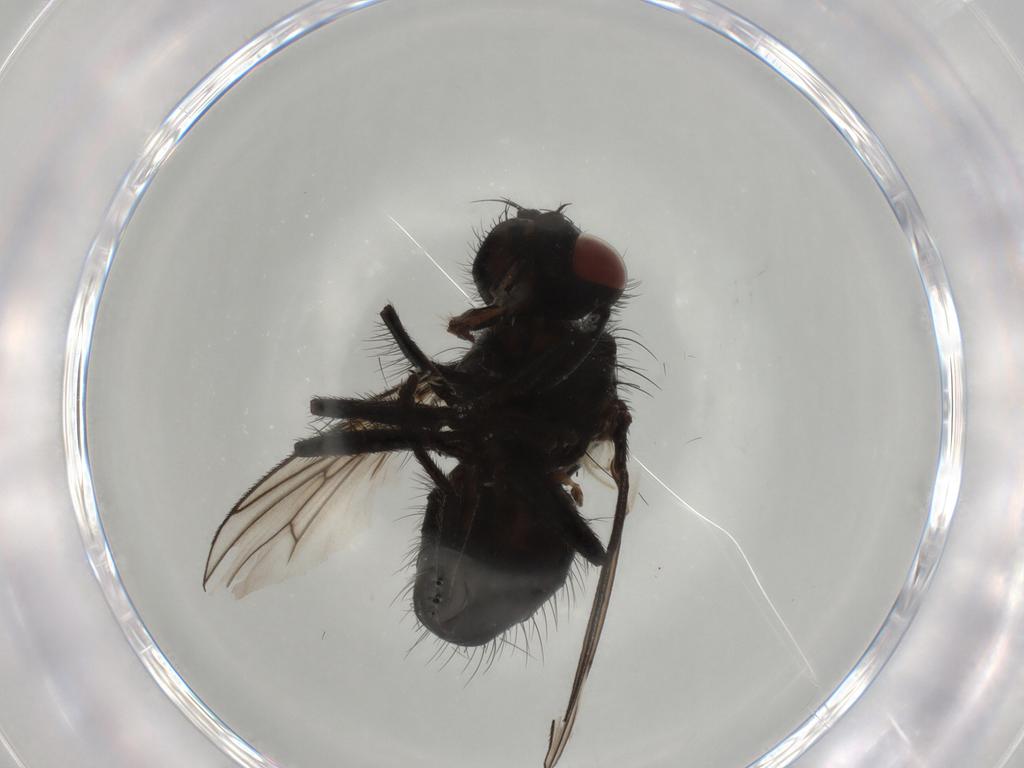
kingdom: Animalia
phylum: Arthropoda
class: Insecta
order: Diptera
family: Muscidae
